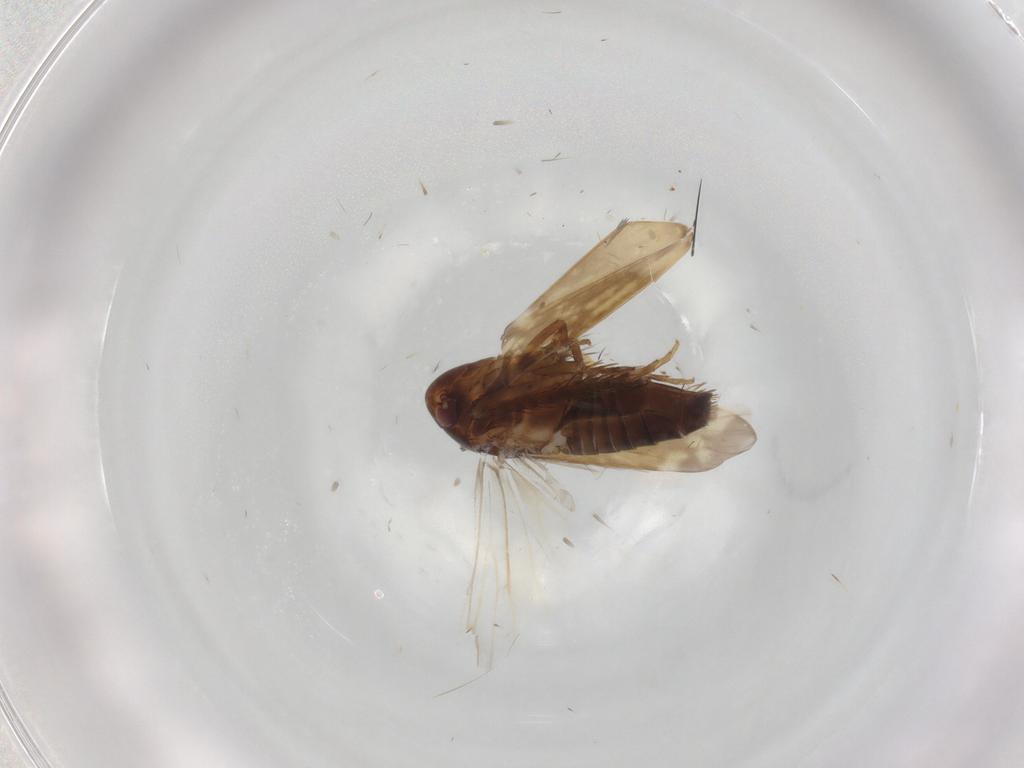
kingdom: Animalia
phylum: Arthropoda
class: Insecta
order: Hemiptera
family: Cicadellidae
